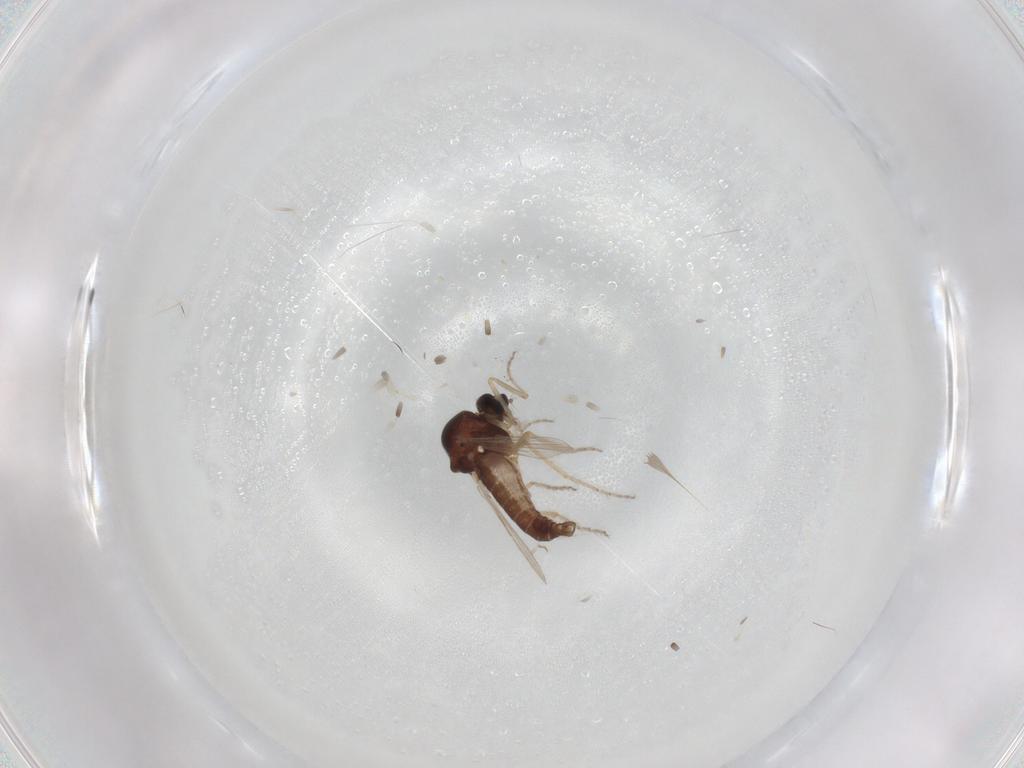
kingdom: Animalia
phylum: Arthropoda
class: Insecta
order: Diptera
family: Ceratopogonidae
